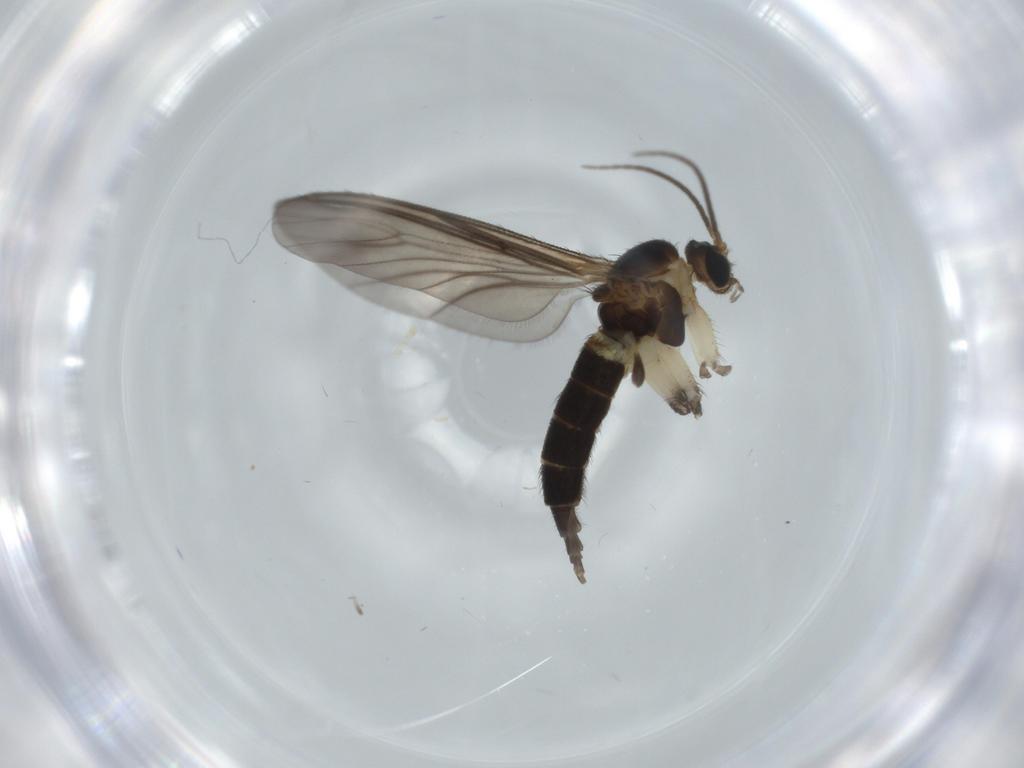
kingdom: Animalia
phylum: Arthropoda
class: Insecta
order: Diptera
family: Sciaridae
